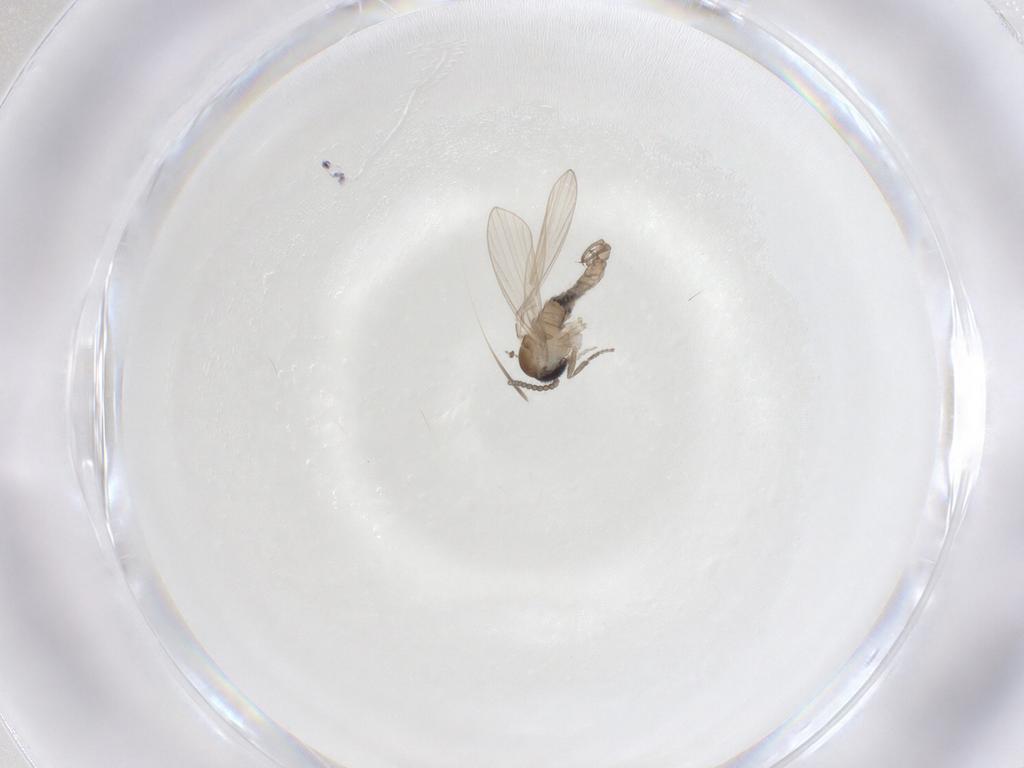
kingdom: Animalia
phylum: Arthropoda
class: Insecta
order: Diptera
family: Psychodidae
